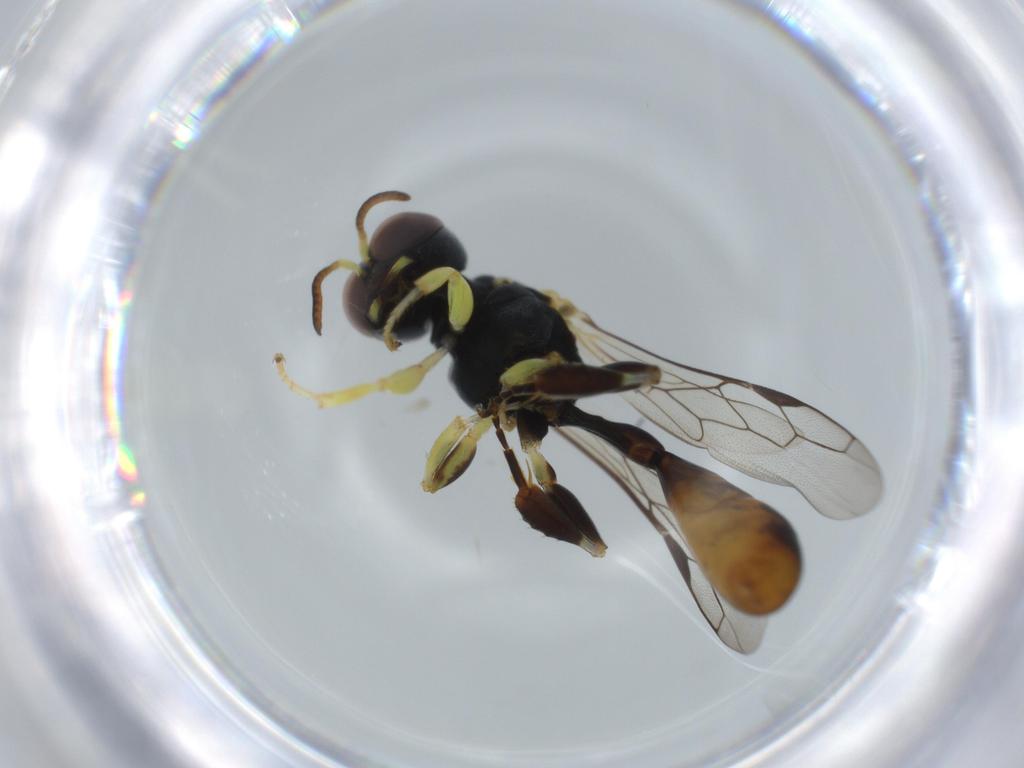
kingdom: Animalia
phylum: Arthropoda
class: Insecta
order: Hymenoptera
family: Crabronidae
